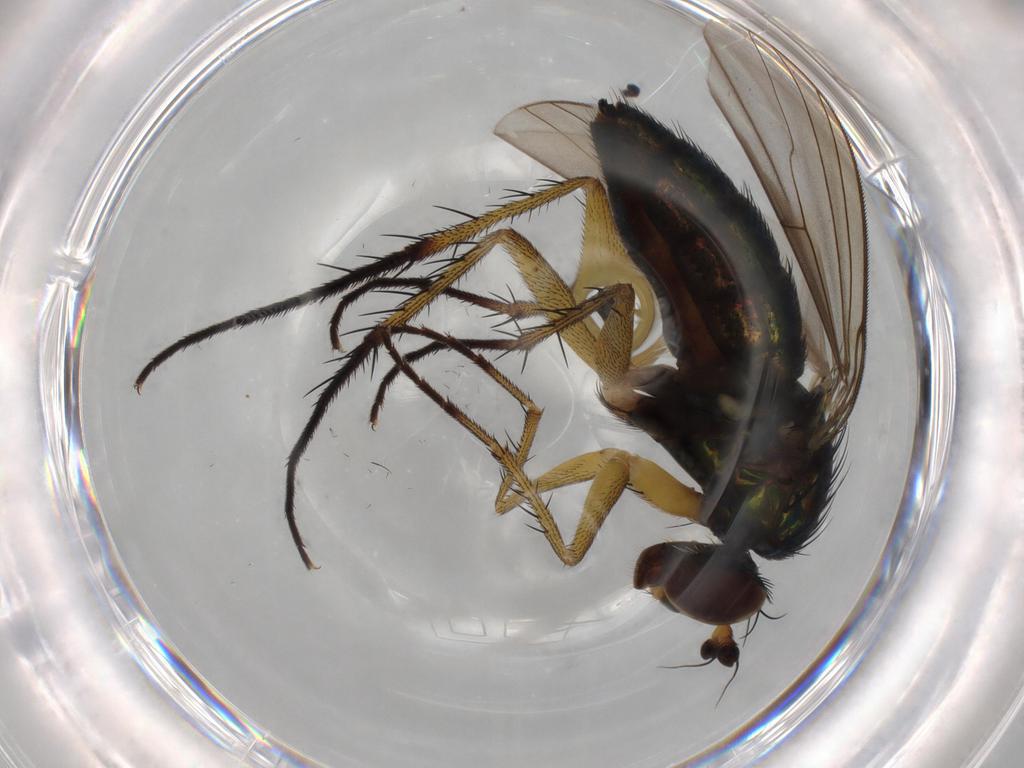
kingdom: Animalia
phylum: Arthropoda
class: Insecta
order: Diptera
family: Dolichopodidae
